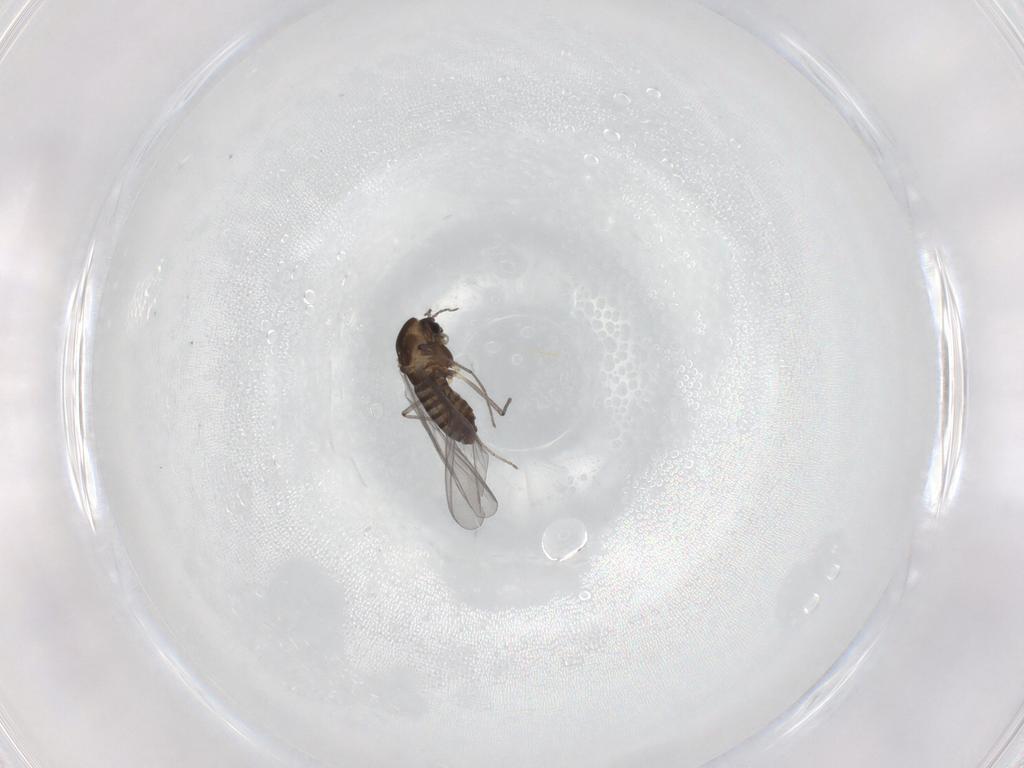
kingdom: Animalia
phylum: Arthropoda
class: Insecta
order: Diptera
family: Chironomidae
